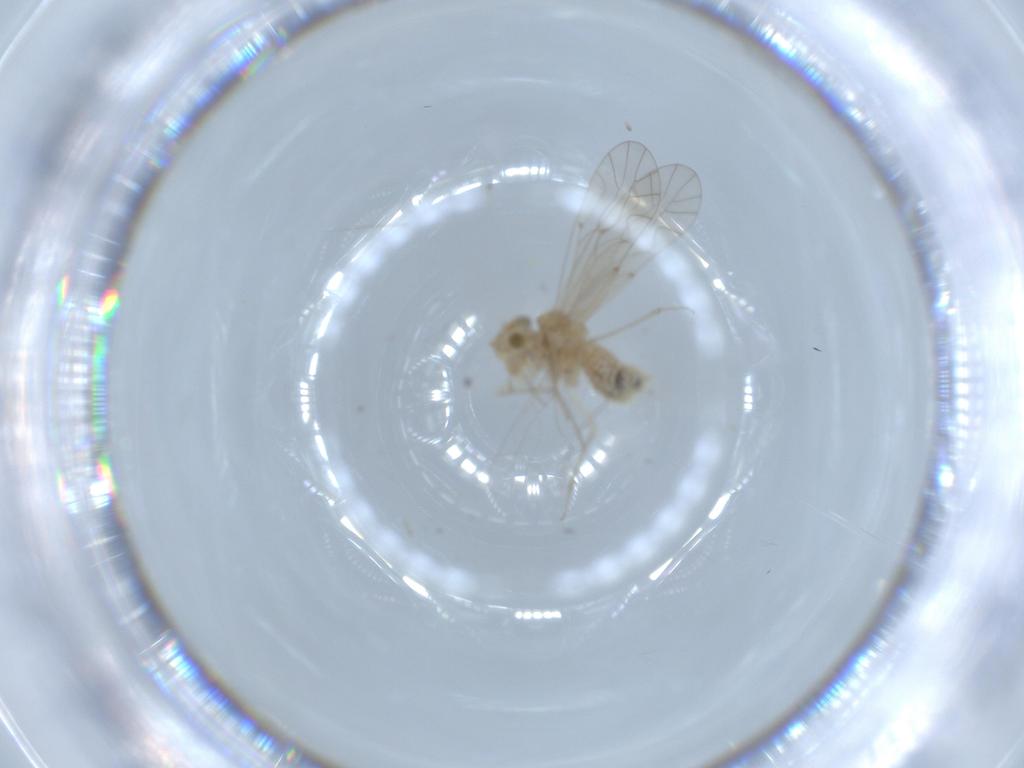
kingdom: Animalia
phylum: Arthropoda
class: Insecta
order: Psocodea
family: Lachesillidae
